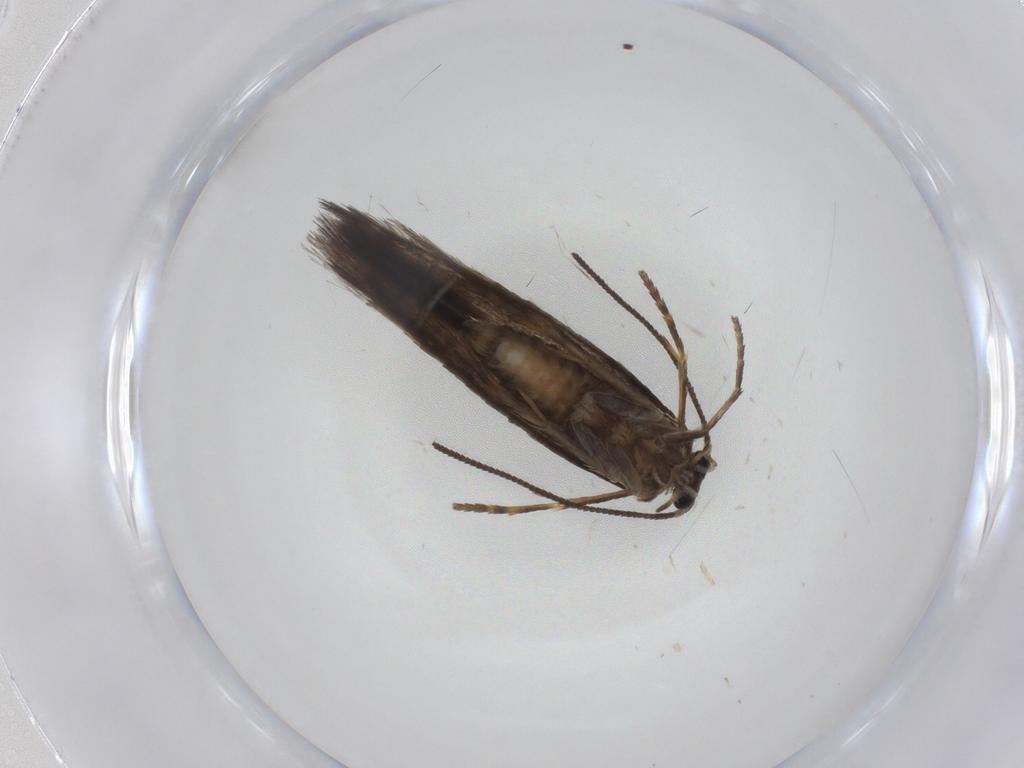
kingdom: Animalia
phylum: Arthropoda
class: Insecta
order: Lepidoptera
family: Nepticulidae
